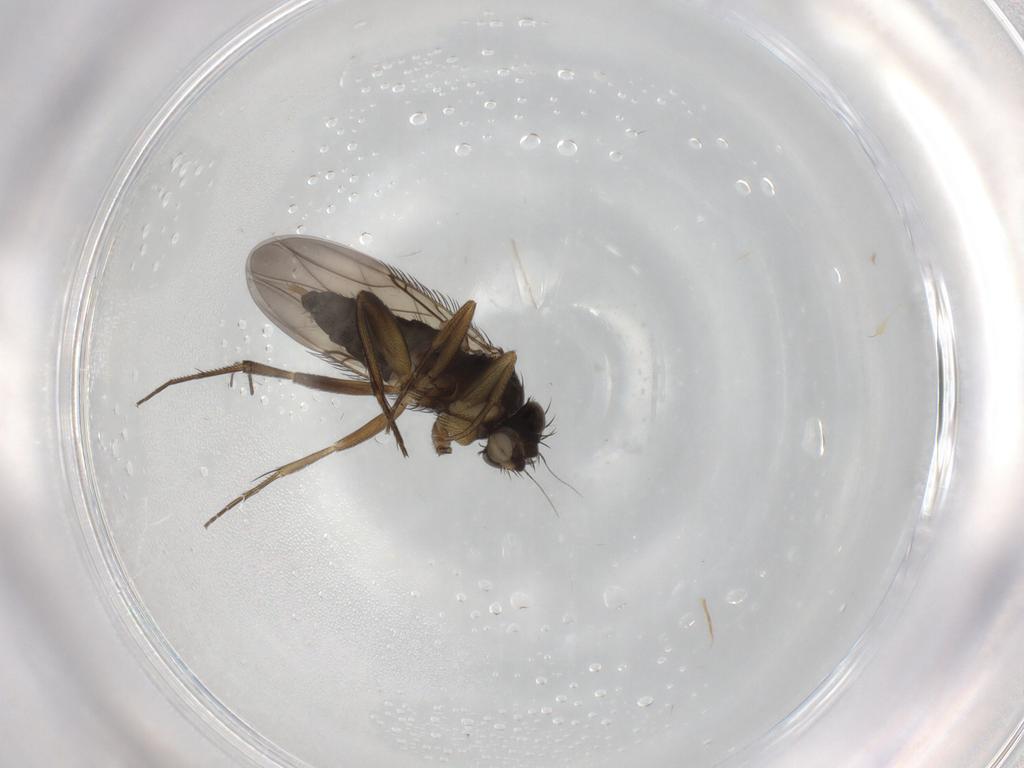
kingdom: Animalia
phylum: Arthropoda
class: Insecta
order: Diptera
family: Phoridae
